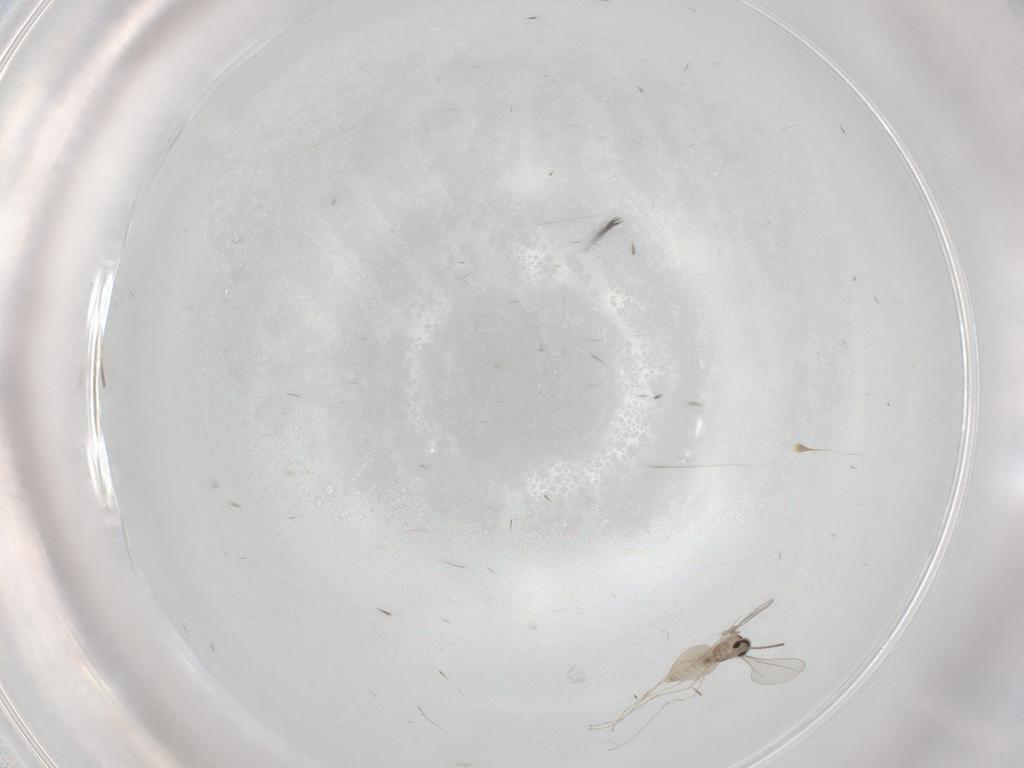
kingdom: Animalia
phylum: Arthropoda
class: Insecta
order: Diptera
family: Cecidomyiidae
